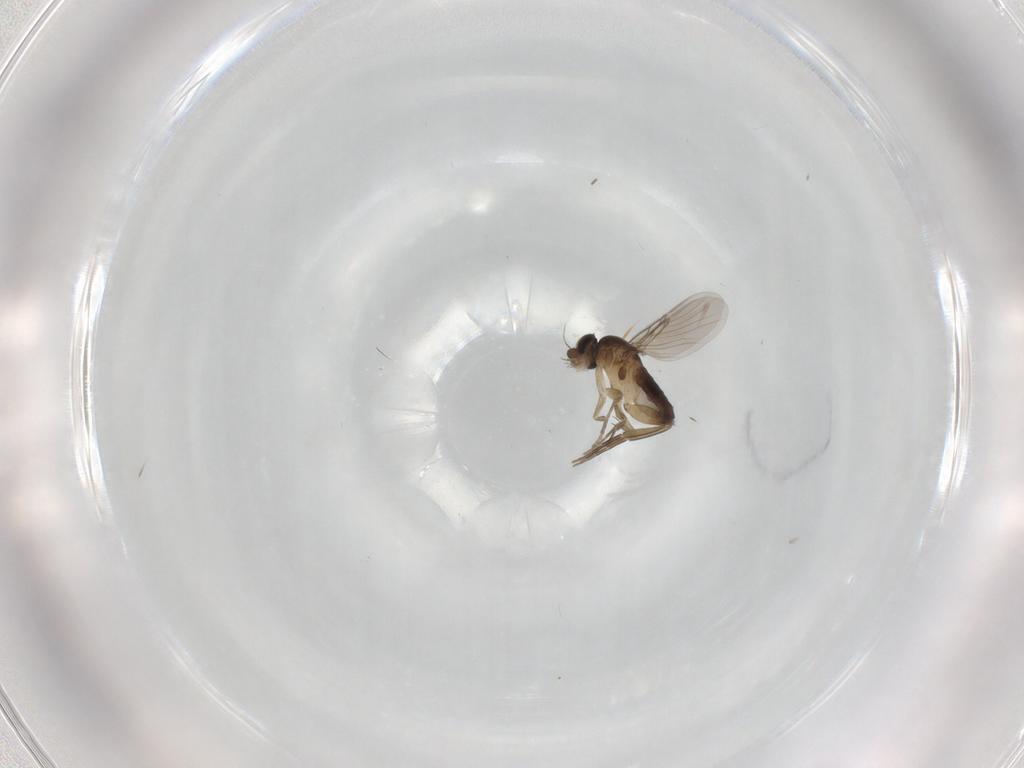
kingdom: Animalia
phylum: Arthropoda
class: Insecta
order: Diptera
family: Phoridae
